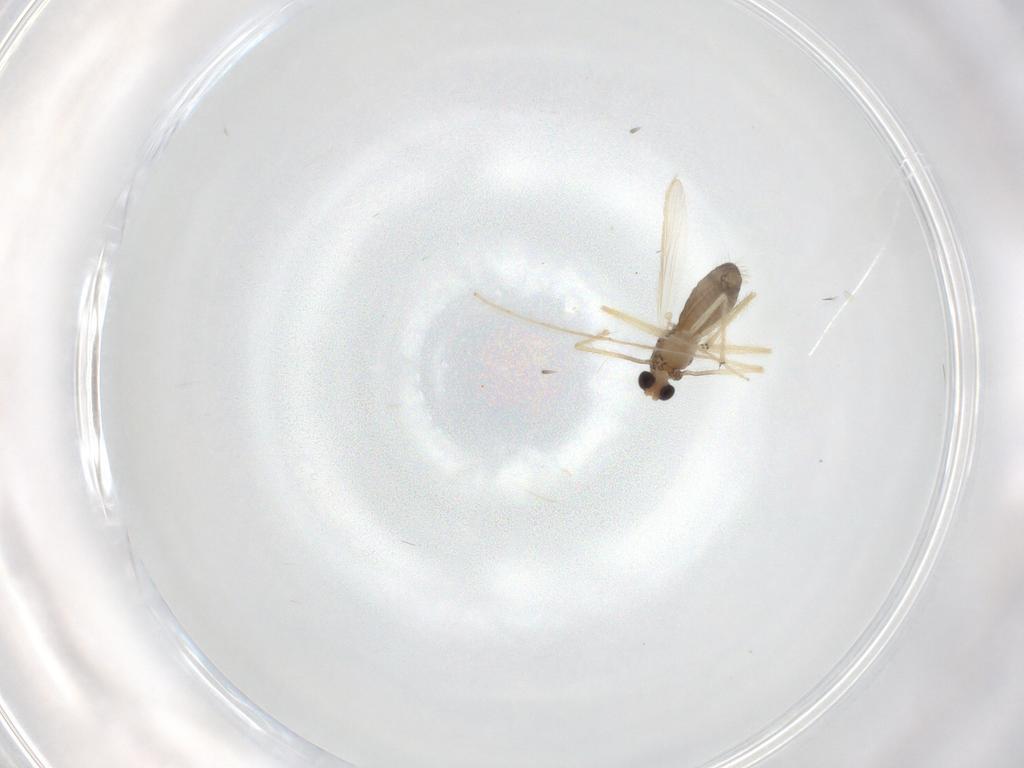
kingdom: Animalia
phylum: Arthropoda
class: Insecta
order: Diptera
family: Chironomidae
